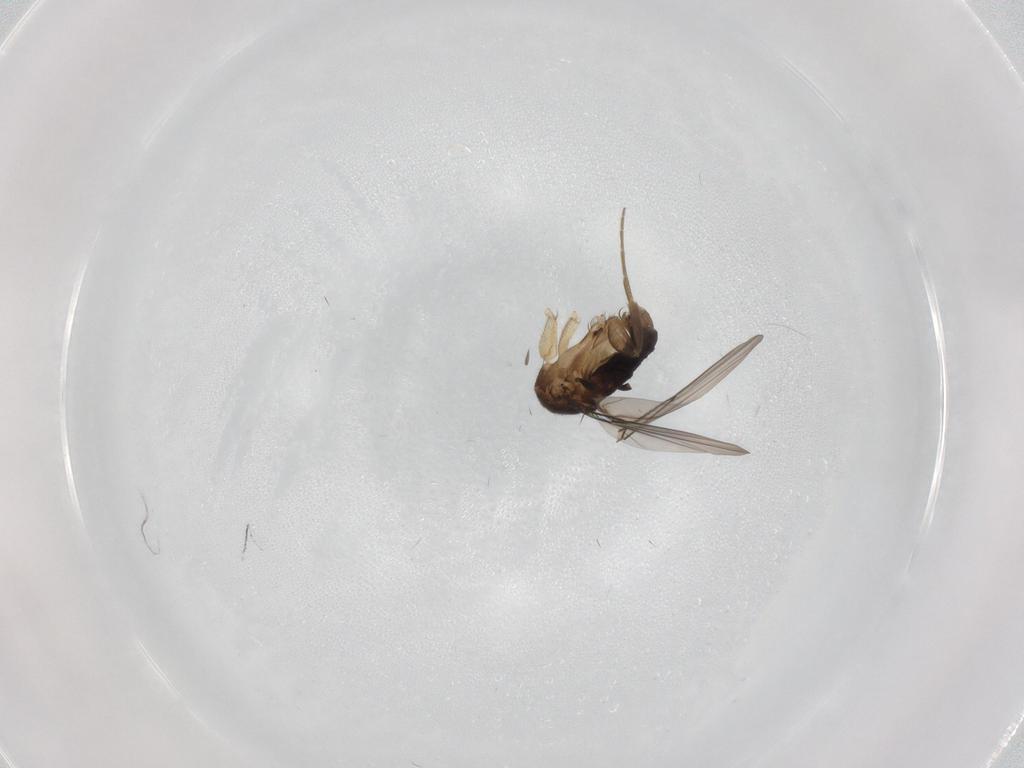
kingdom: Animalia
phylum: Arthropoda
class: Insecta
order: Diptera
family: Phoridae
